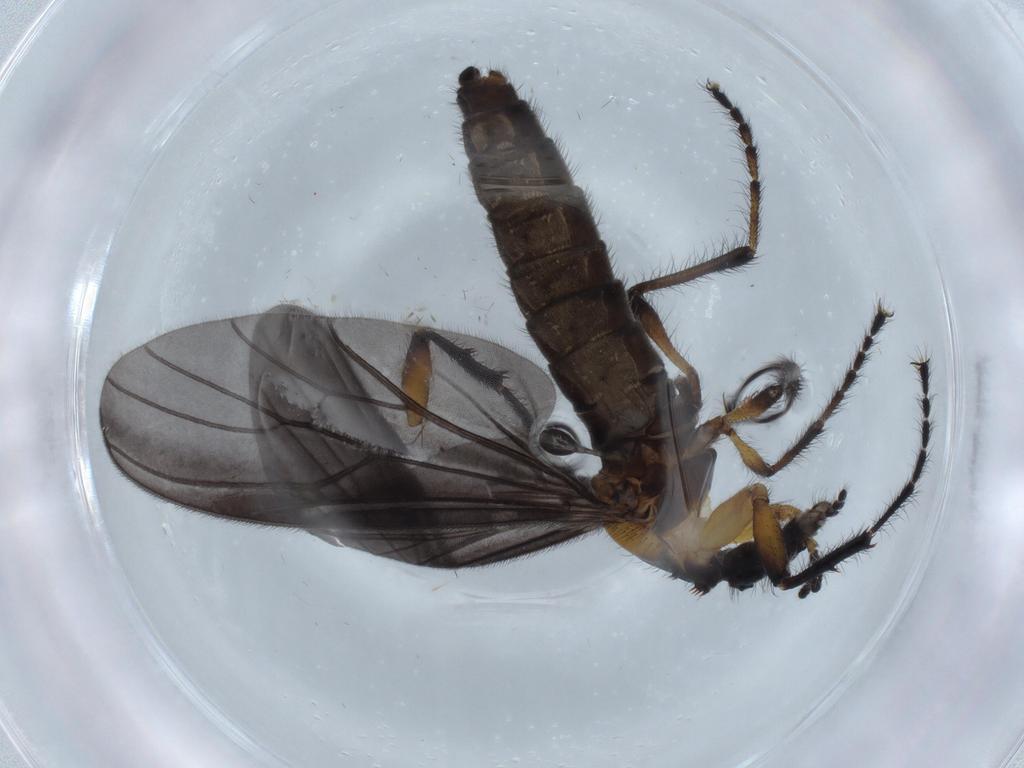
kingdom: Animalia
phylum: Arthropoda
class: Insecta
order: Diptera
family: Bibionidae
